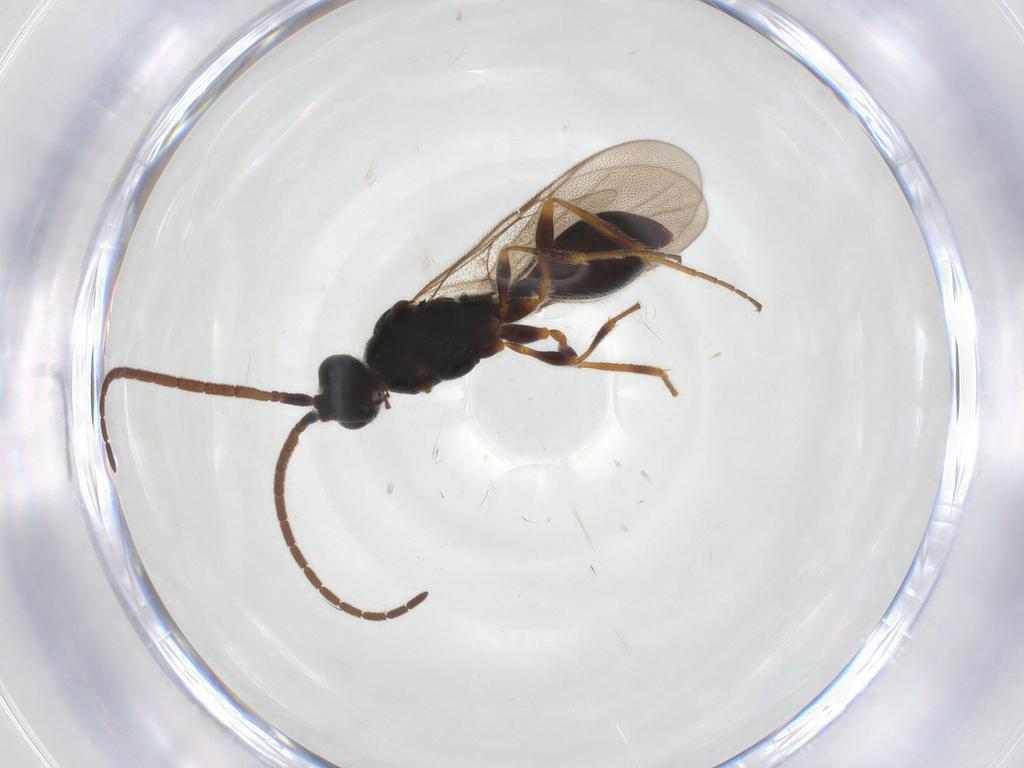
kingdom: Animalia
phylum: Arthropoda
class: Insecta
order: Hymenoptera
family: Diapriidae
